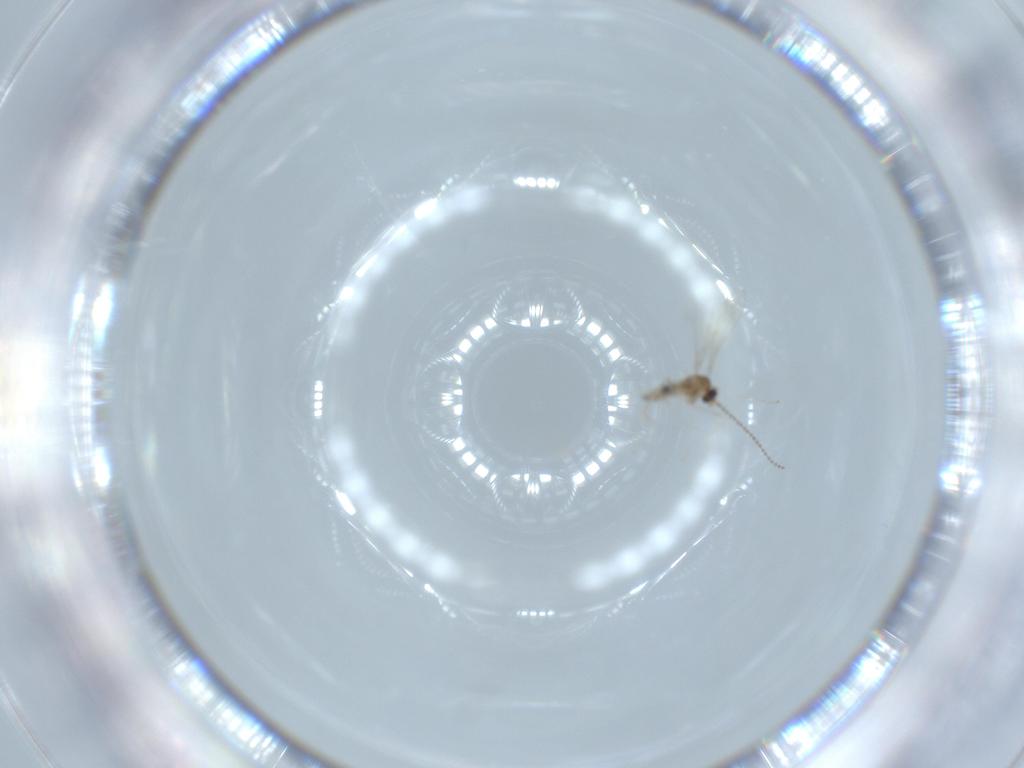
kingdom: Animalia
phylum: Arthropoda
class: Insecta
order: Diptera
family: Cecidomyiidae
